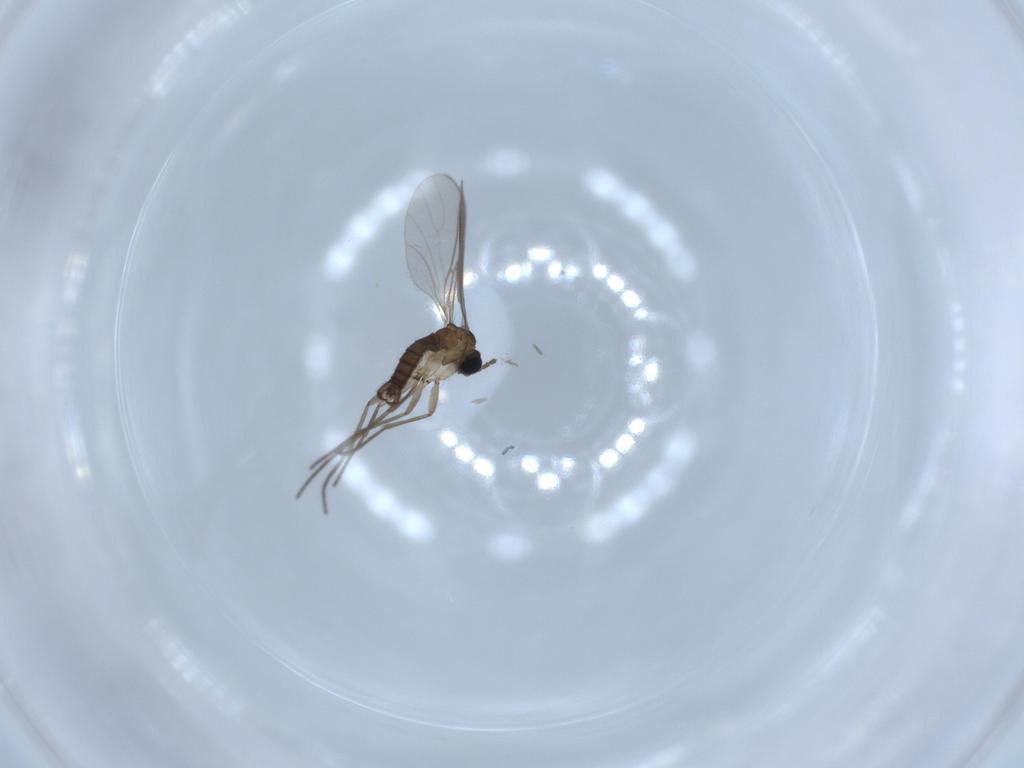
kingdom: Animalia
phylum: Arthropoda
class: Insecta
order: Diptera
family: Sciaridae
